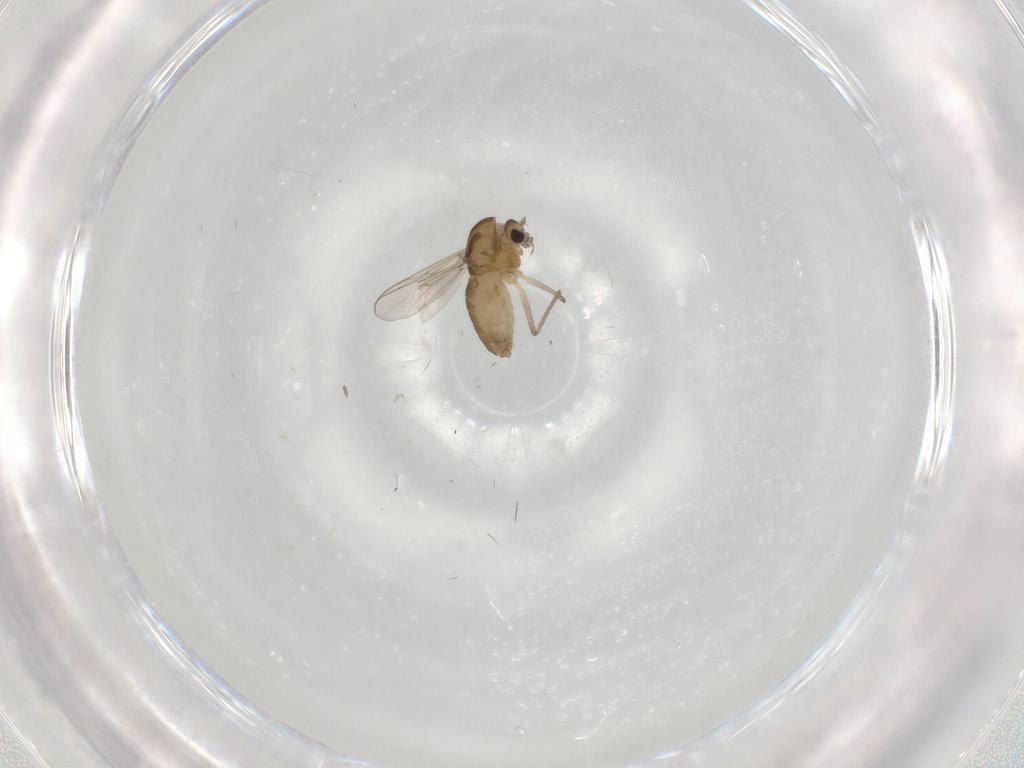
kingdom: Animalia
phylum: Arthropoda
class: Insecta
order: Diptera
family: Chironomidae
